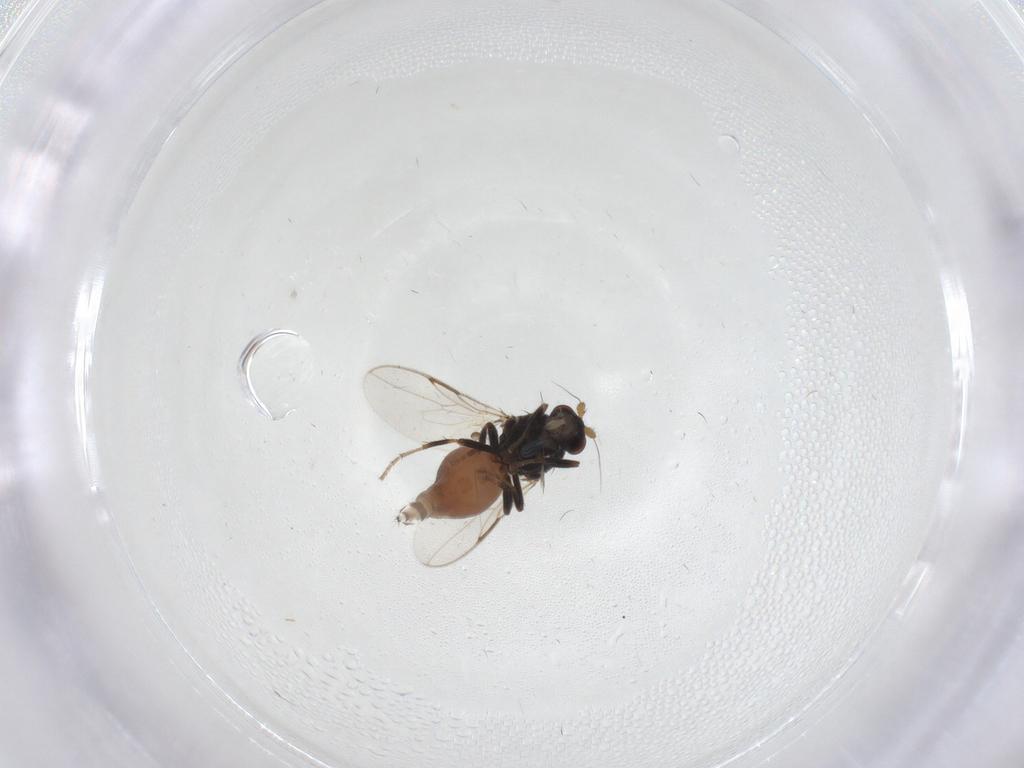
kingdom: Animalia
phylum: Arthropoda
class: Insecta
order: Diptera
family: Sphaeroceridae
